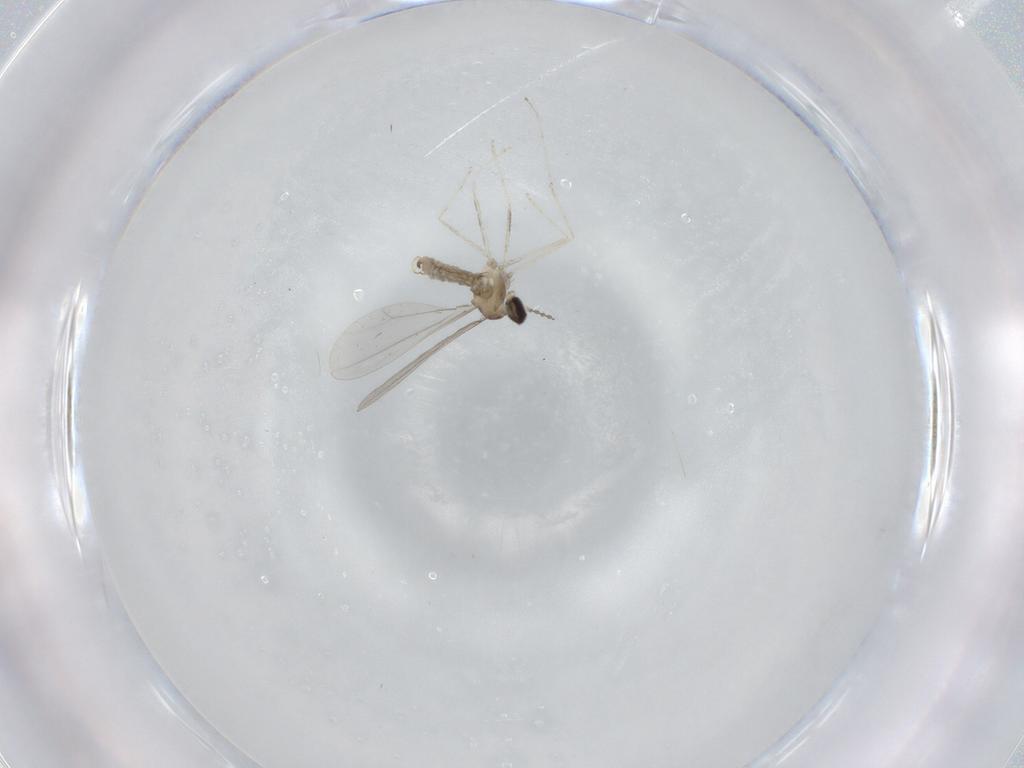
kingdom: Animalia
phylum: Arthropoda
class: Insecta
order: Diptera
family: Cecidomyiidae
